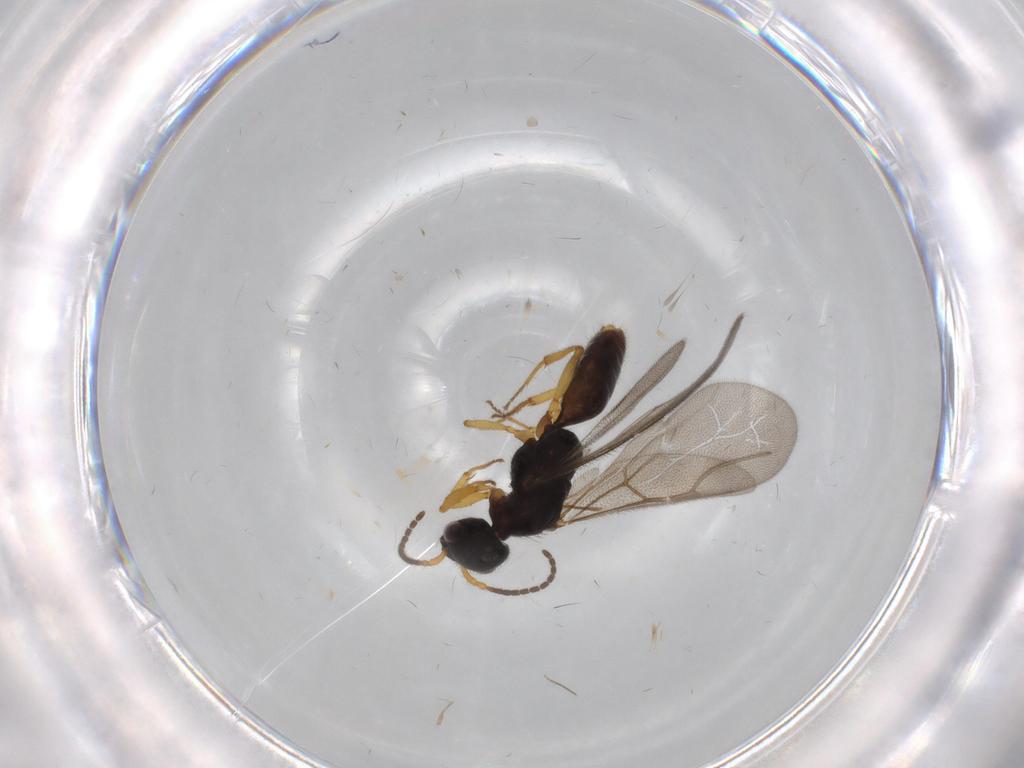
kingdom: Animalia
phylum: Arthropoda
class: Insecta
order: Hymenoptera
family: Bethylidae
